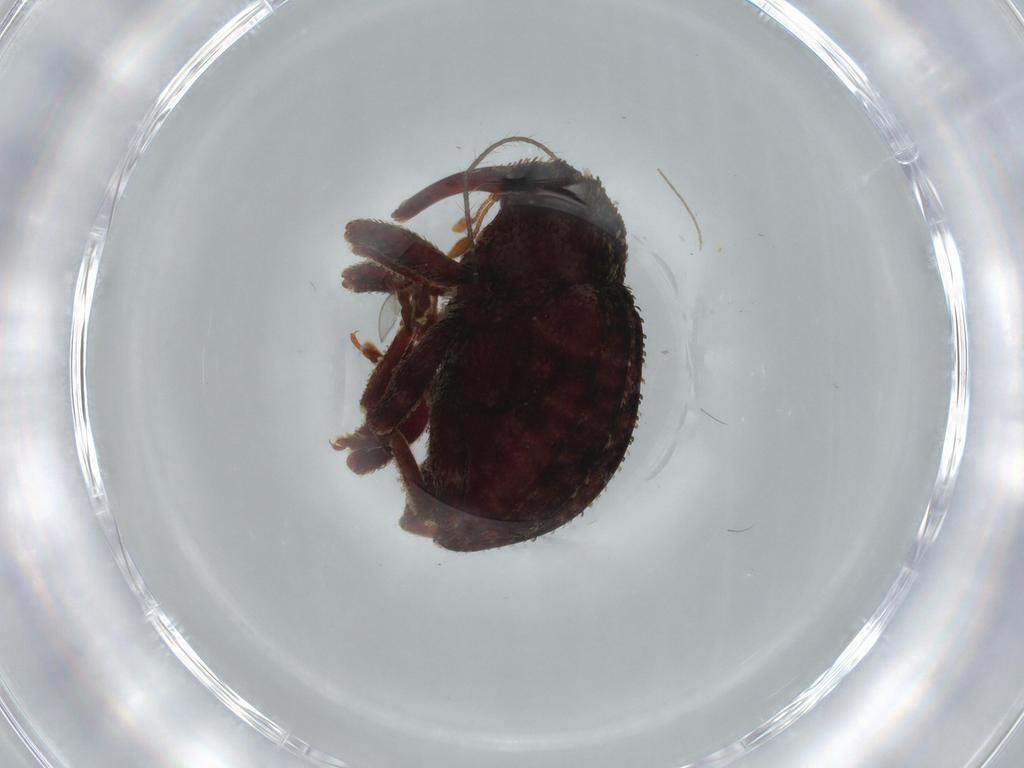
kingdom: Animalia
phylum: Arthropoda
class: Insecta
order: Coleoptera
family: Curculionidae
